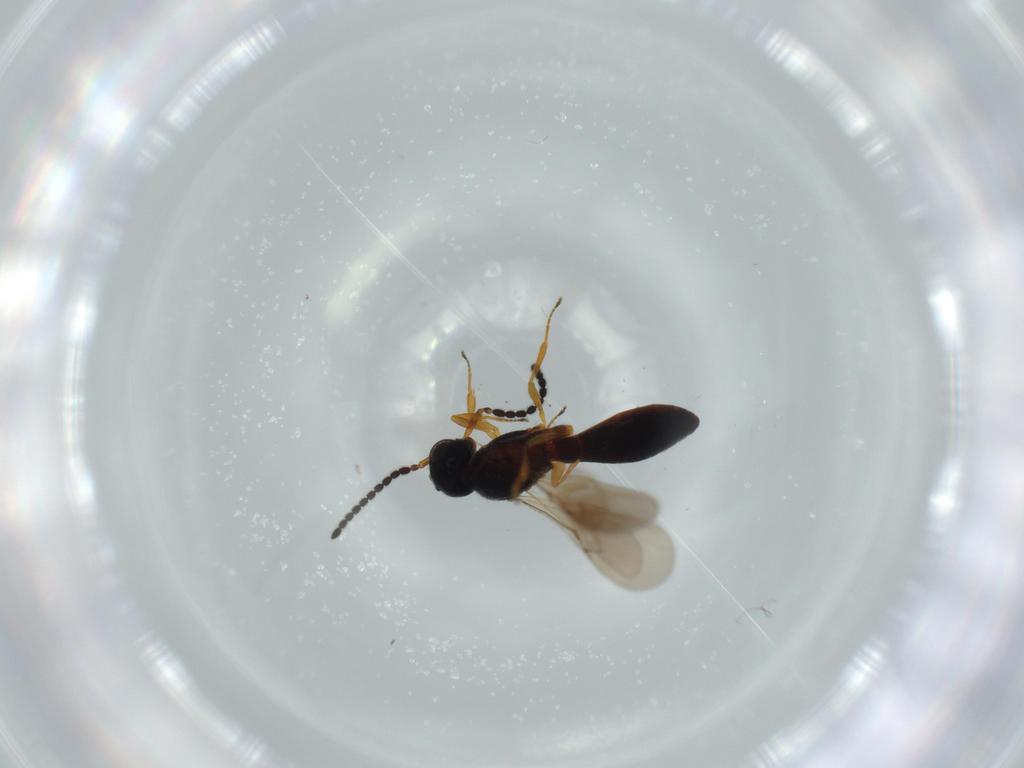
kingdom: Animalia
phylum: Arthropoda
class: Insecta
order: Hymenoptera
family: Scelionidae
